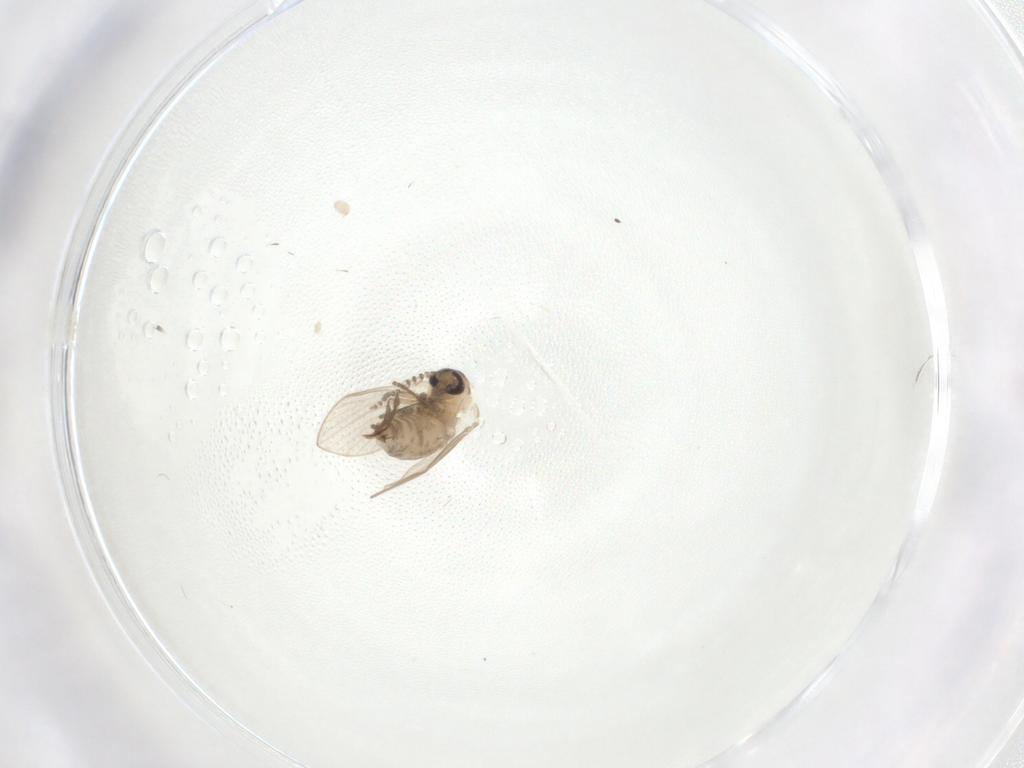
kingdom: Animalia
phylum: Arthropoda
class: Insecta
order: Diptera
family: Psychodidae
